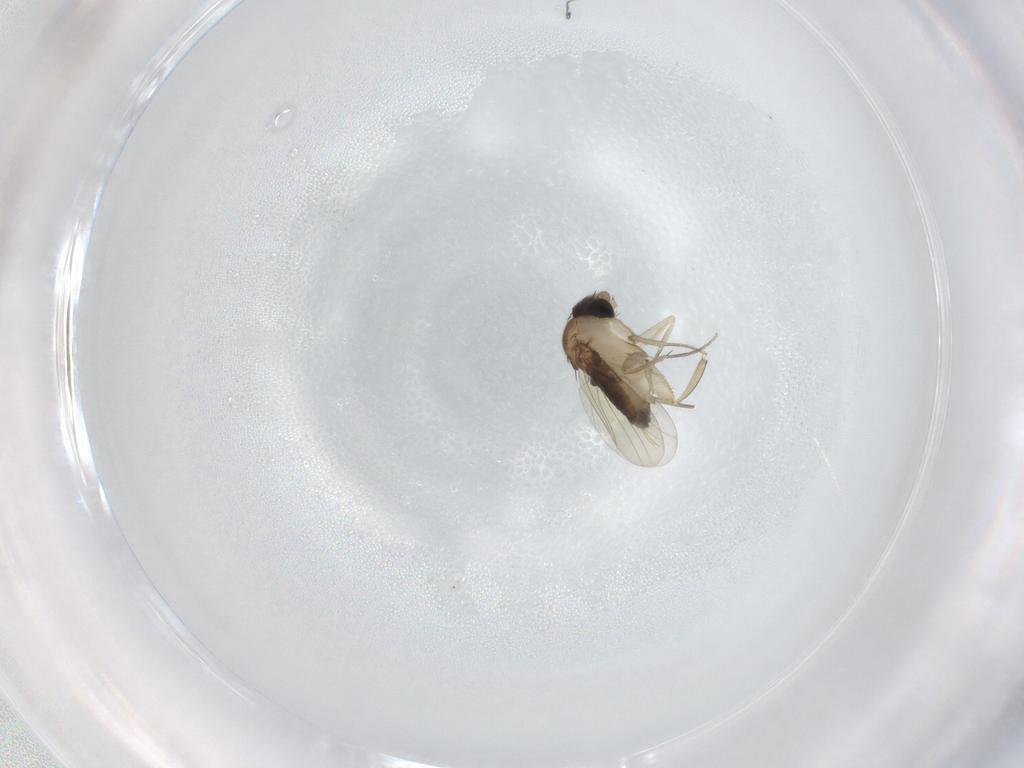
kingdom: Animalia
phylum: Arthropoda
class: Insecta
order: Diptera
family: Phoridae
